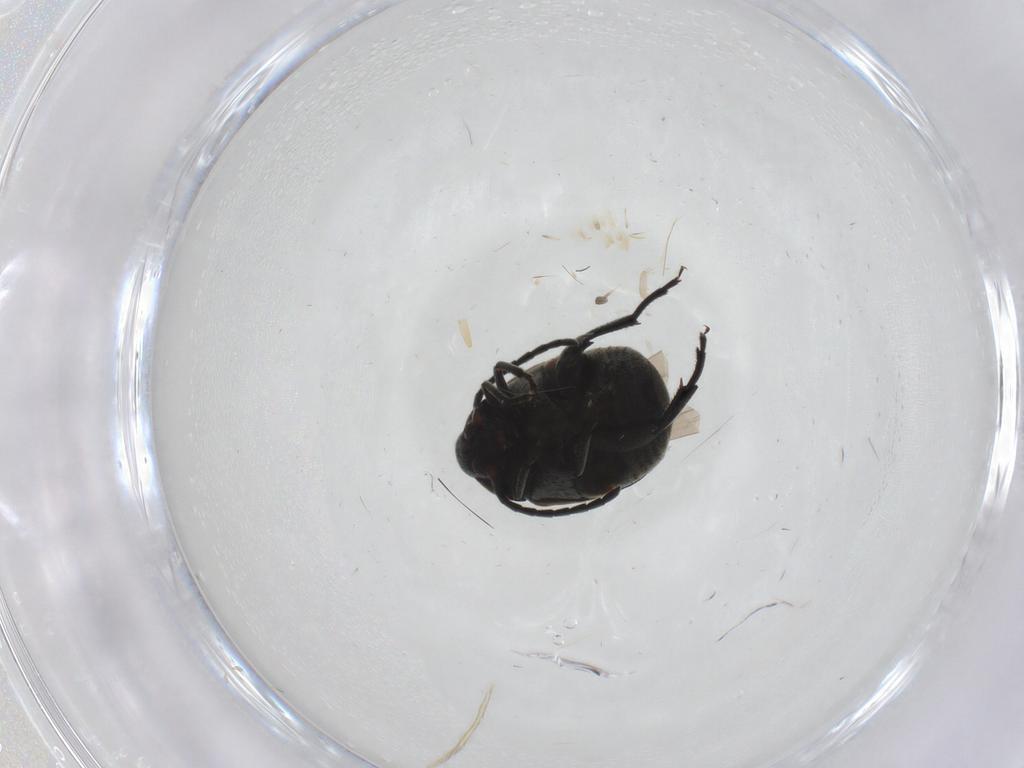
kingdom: Animalia
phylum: Arthropoda
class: Insecta
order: Coleoptera
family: Chrysomelidae
